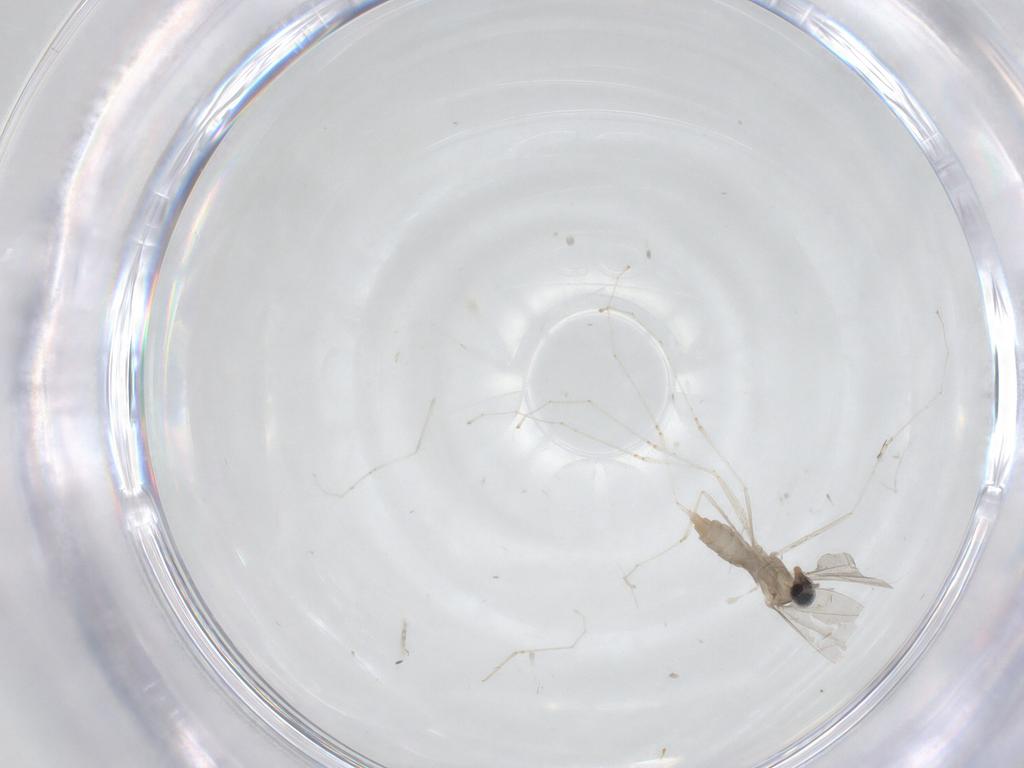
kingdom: Animalia
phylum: Arthropoda
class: Insecta
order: Diptera
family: Cecidomyiidae
